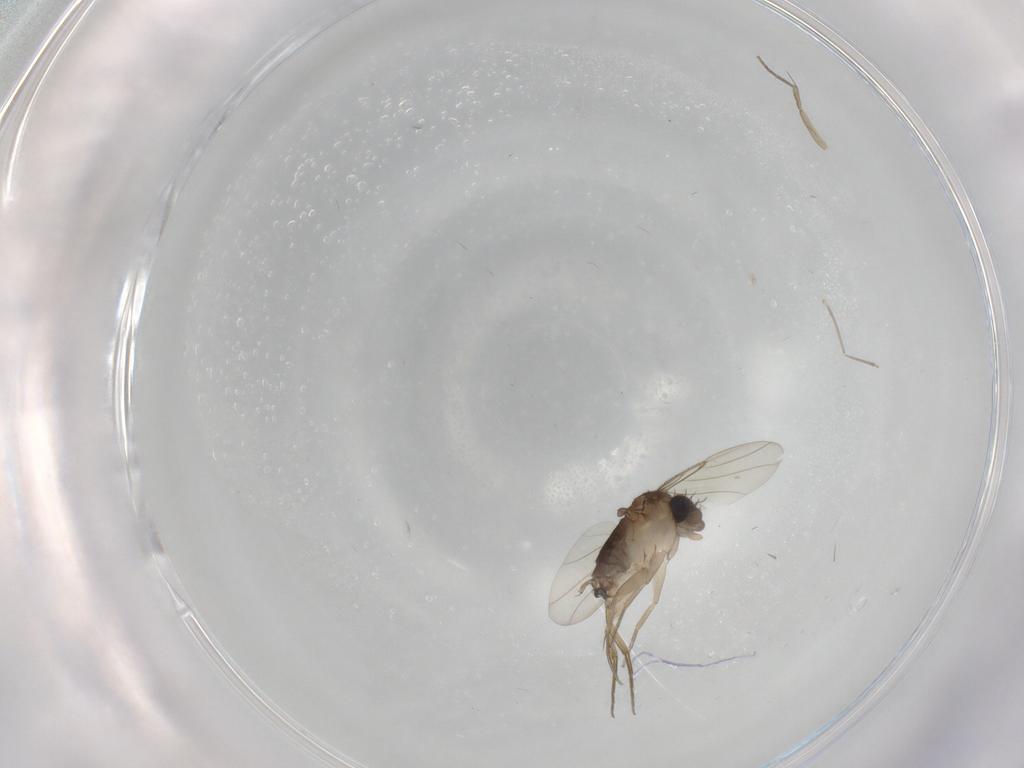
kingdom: Animalia
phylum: Arthropoda
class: Insecta
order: Diptera
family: Phoridae
